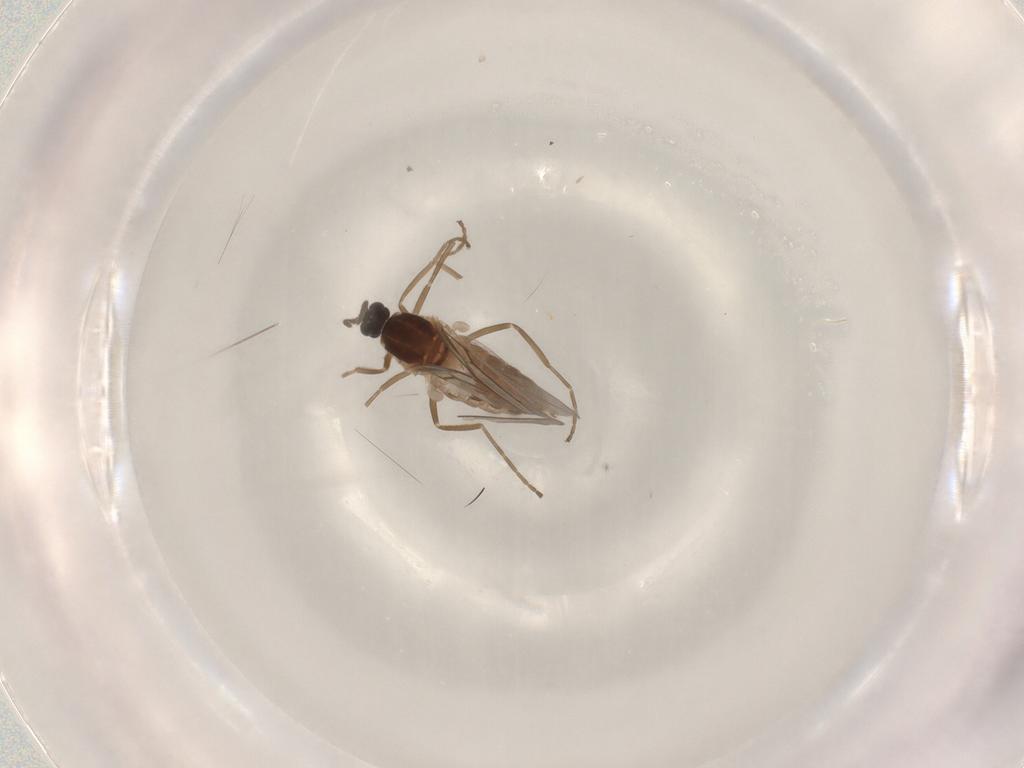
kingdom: Animalia
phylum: Arthropoda
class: Insecta
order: Diptera
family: Cecidomyiidae
